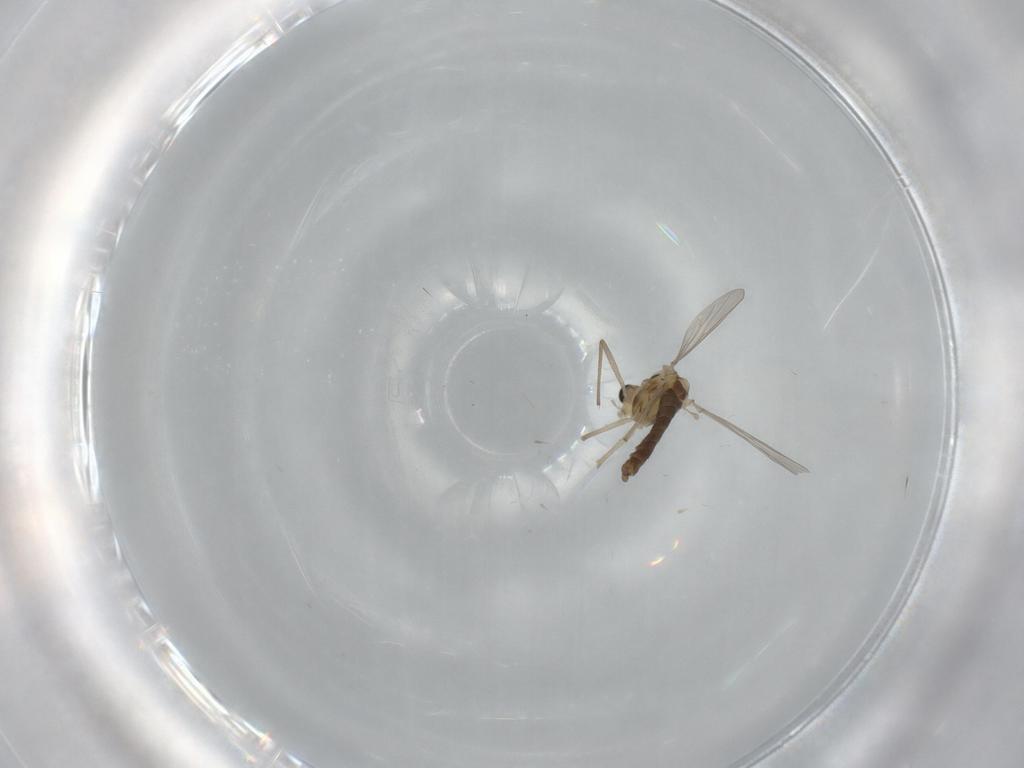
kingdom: Animalia
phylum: Arthropoda
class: Insecta
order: Diptera
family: Chironomidae
